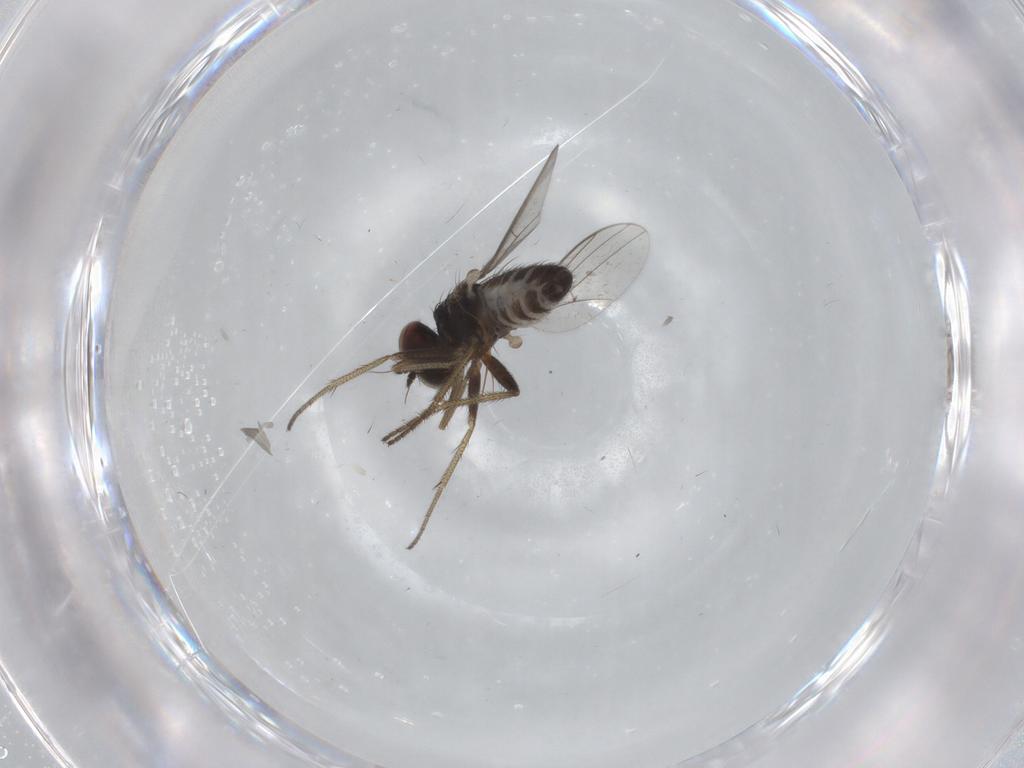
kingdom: Animalia
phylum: Arthropoda
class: Insecta
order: Diptera
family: Dolichopodidae
